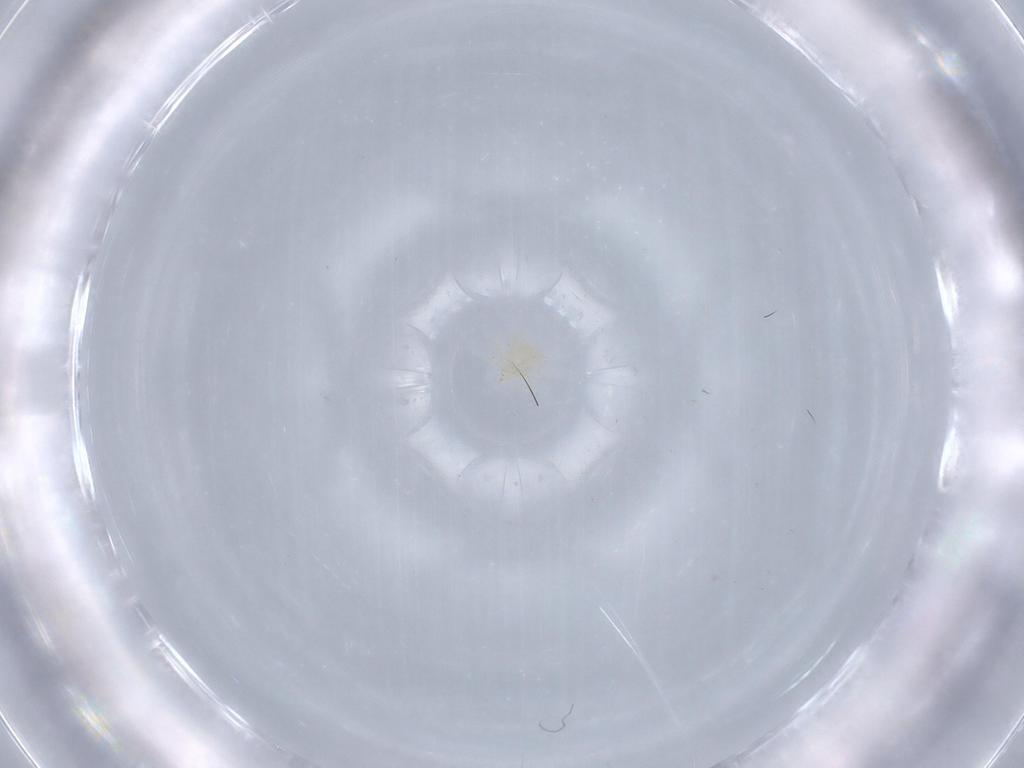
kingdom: Animalia
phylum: Arthropoda
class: Arachnida
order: Trombidiformes
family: Anystidae
